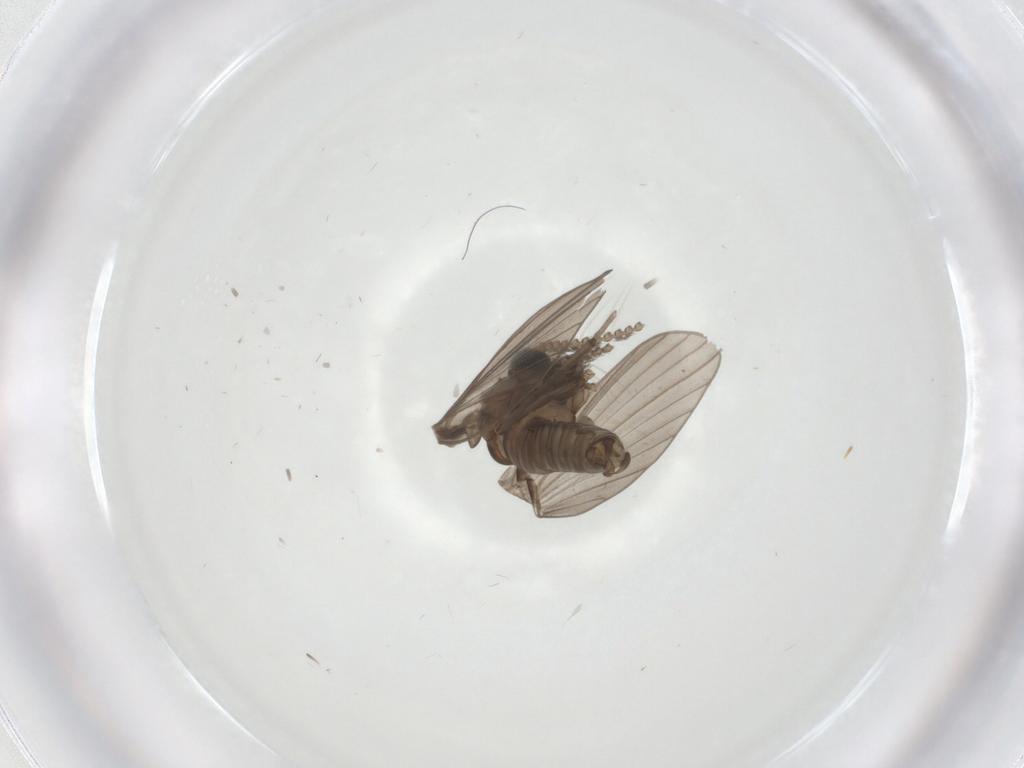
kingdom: Animalia
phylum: Arthropoda
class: Insecta
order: Diptera
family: Psychodidae
